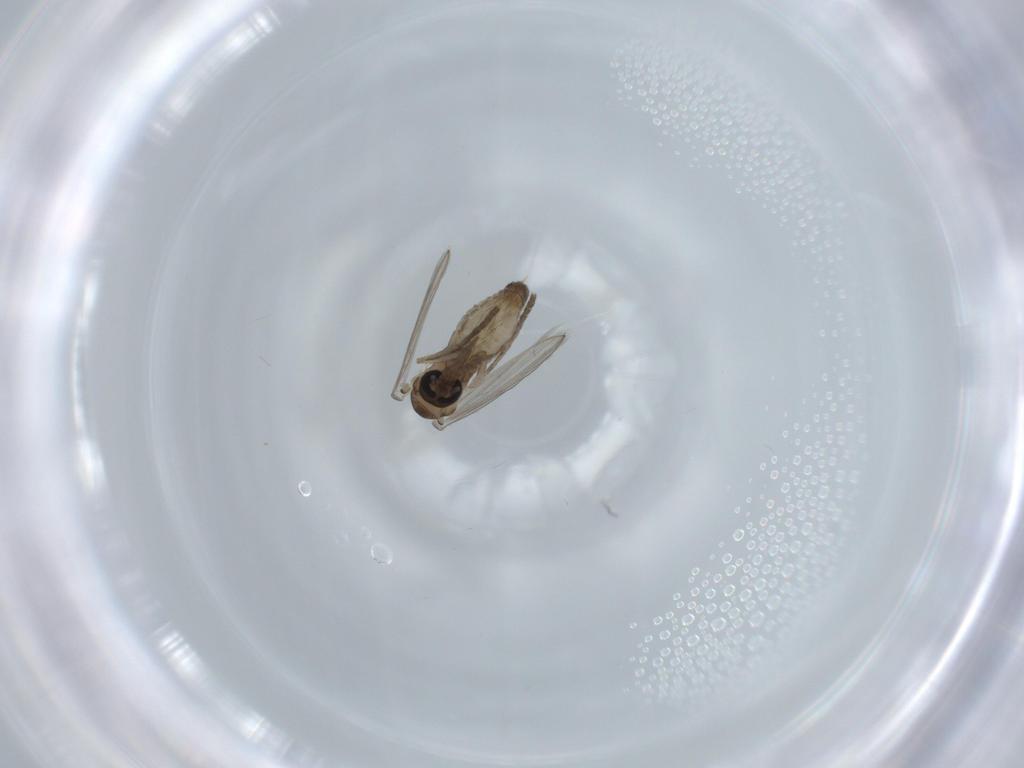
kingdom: Animalia
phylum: Arthropoda
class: Insecta
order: Diptera
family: Psychodidae
